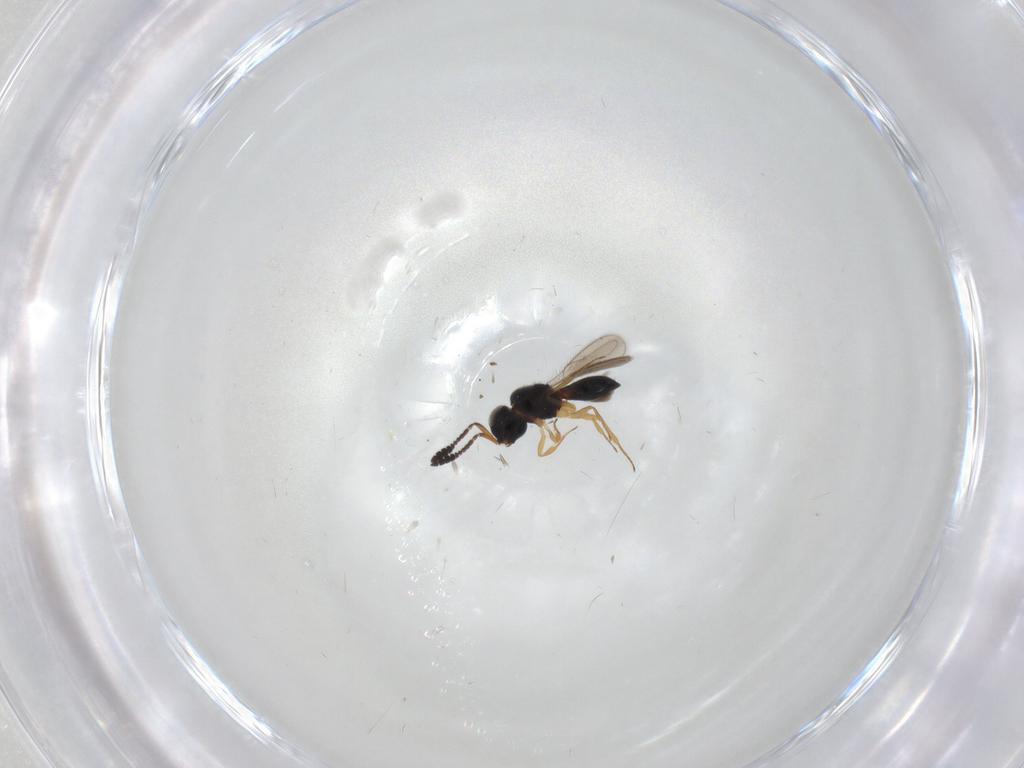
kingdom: Animalia
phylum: Arthropoda
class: Insecta
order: Hymenoptera
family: Scelionidae
